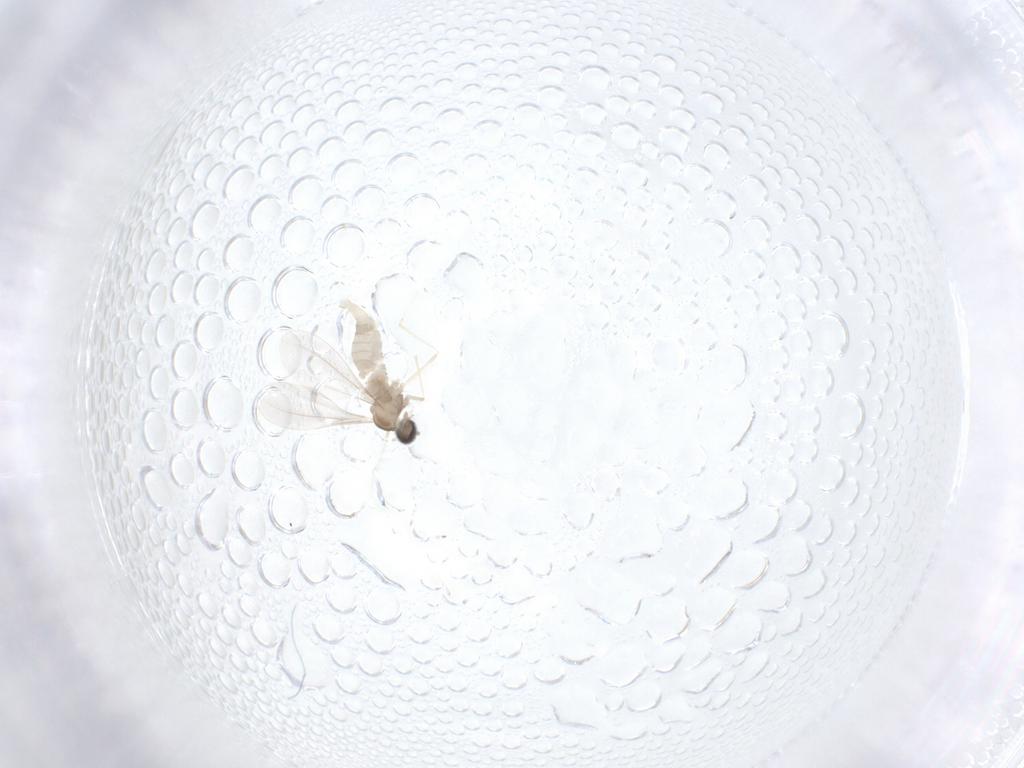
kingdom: Animalia
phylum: Arthropoda
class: Insecta
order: Diptera
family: Cecidomyiidae
